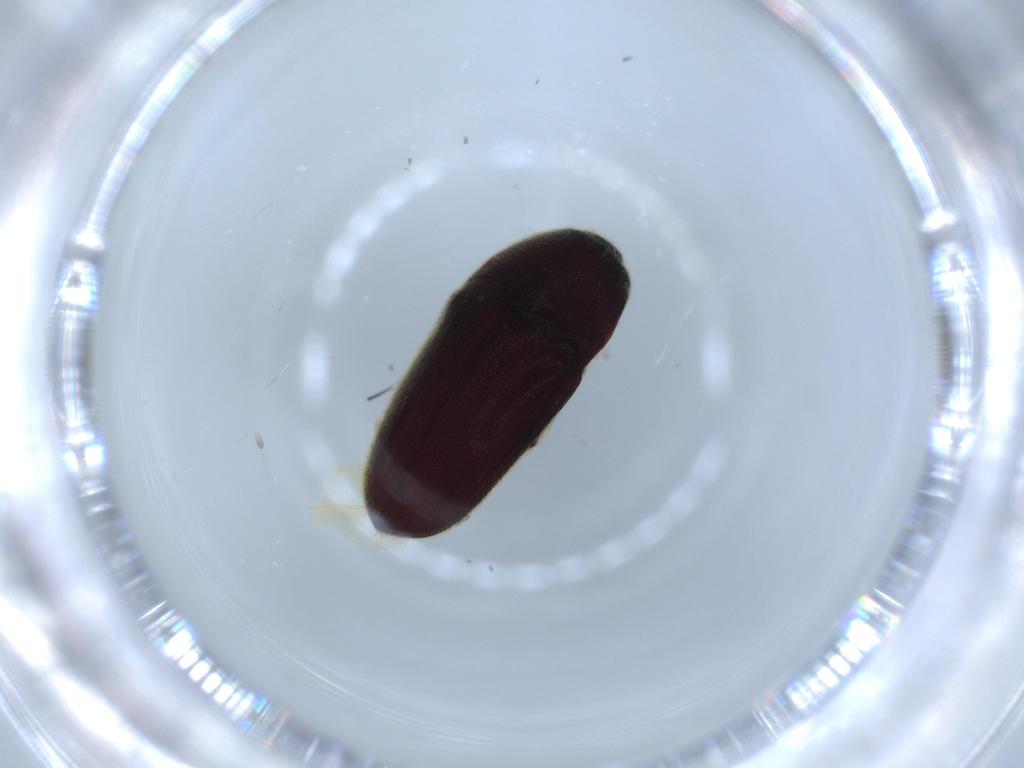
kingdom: Animalia
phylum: Arthropoda
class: Insecta
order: Coleoptera
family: Throscidae
